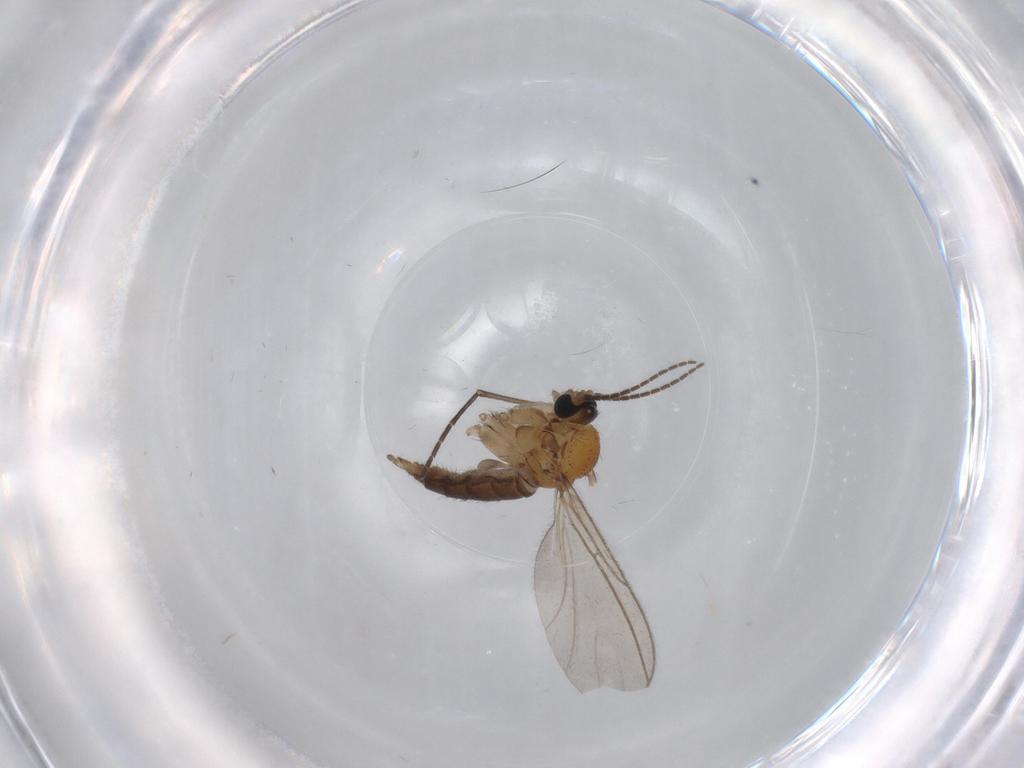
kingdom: Animalia
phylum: Arthropoda
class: Insecta
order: Diptera
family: Sciaridae
